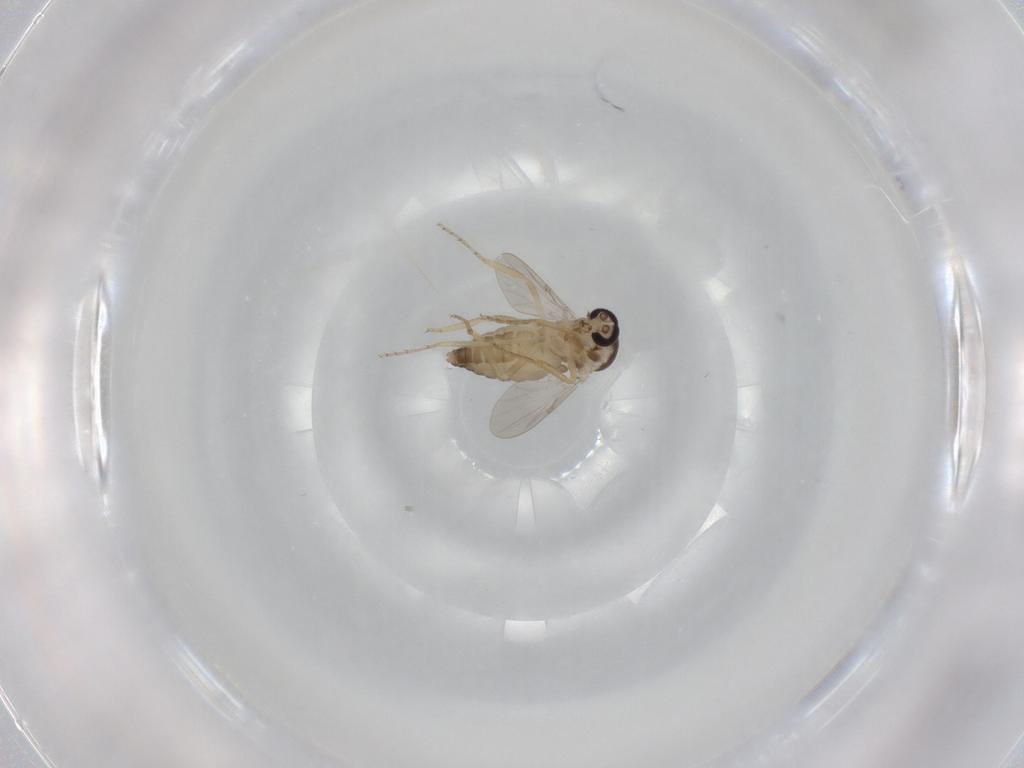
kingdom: Animalia
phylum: Arthropoda
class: Insecta
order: Diptera
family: Ceratopogonidae
